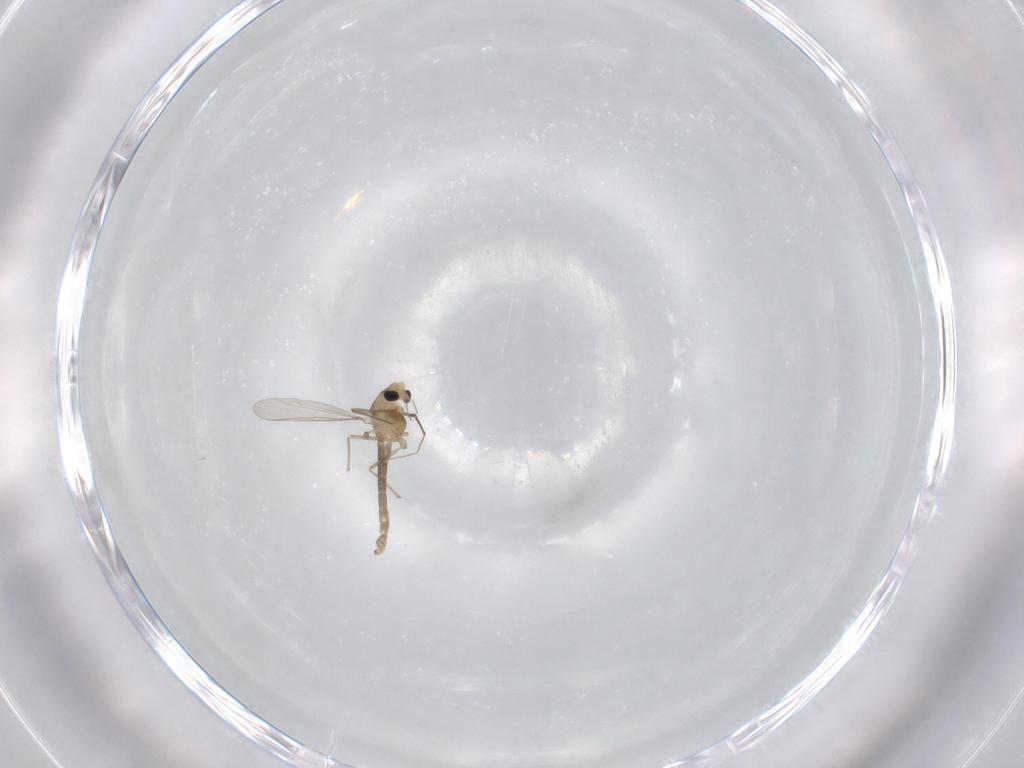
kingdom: Animalia
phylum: Arthropoda
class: Insecta
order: Diptera
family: Chironomidae
